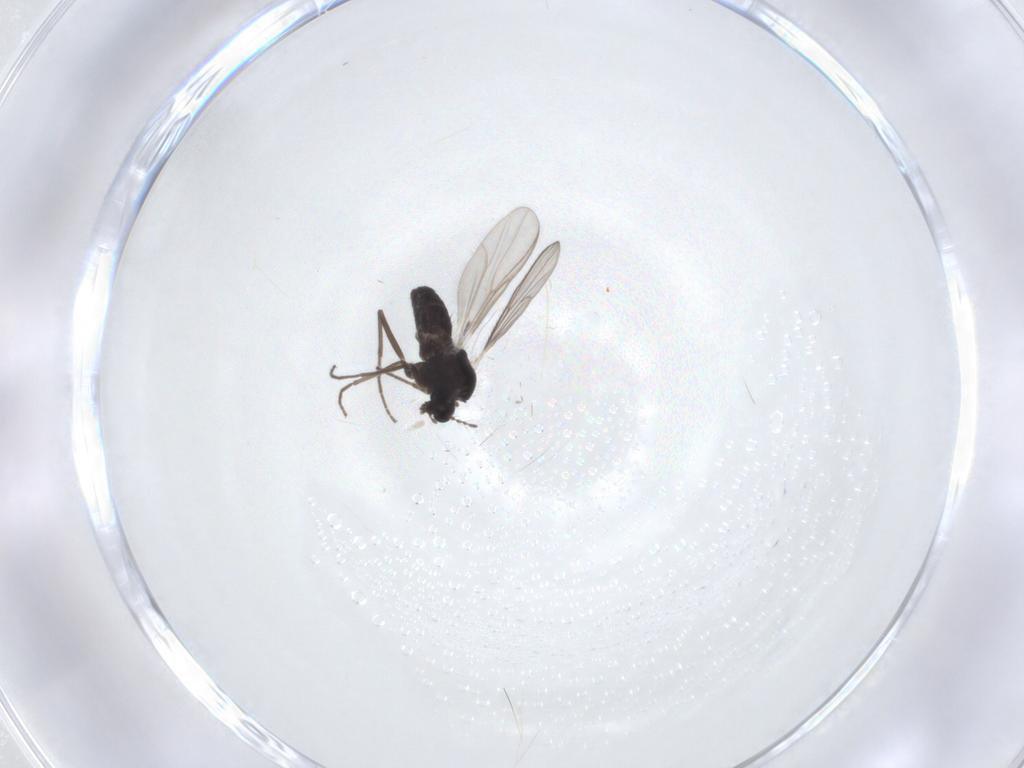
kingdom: Animalia
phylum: Arthropoda
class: Insecta
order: Diptera
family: Chironomidae
